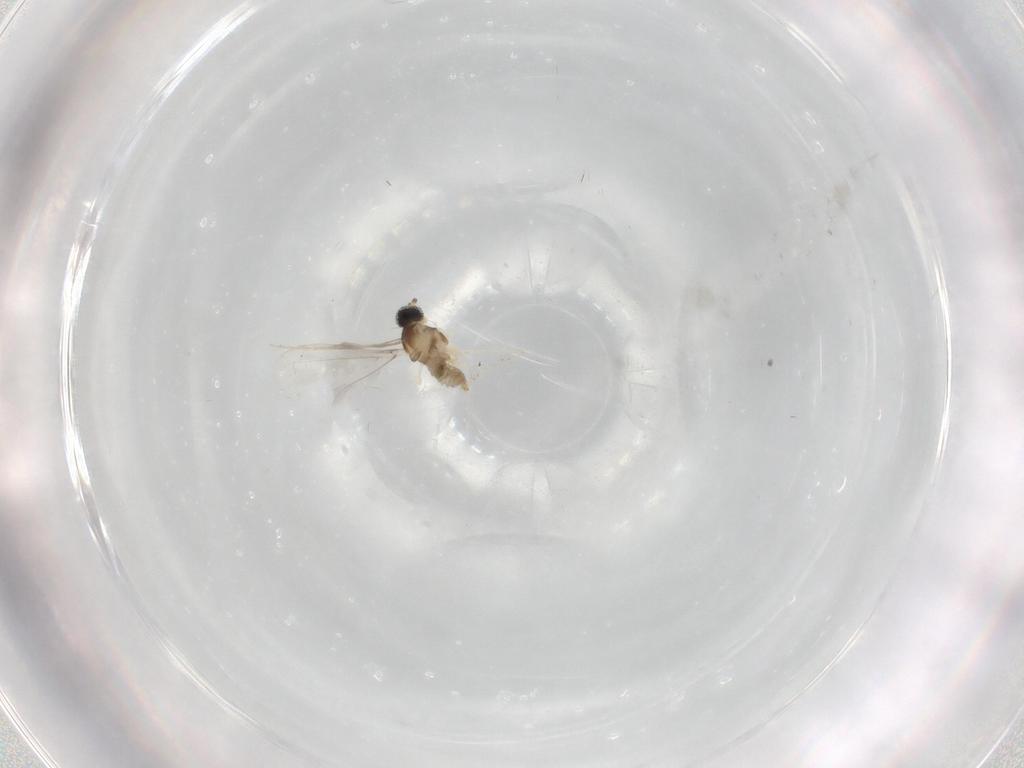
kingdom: Animalia
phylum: Arthropoda
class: Insecta
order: Diptera
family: Cecidomyiidae
